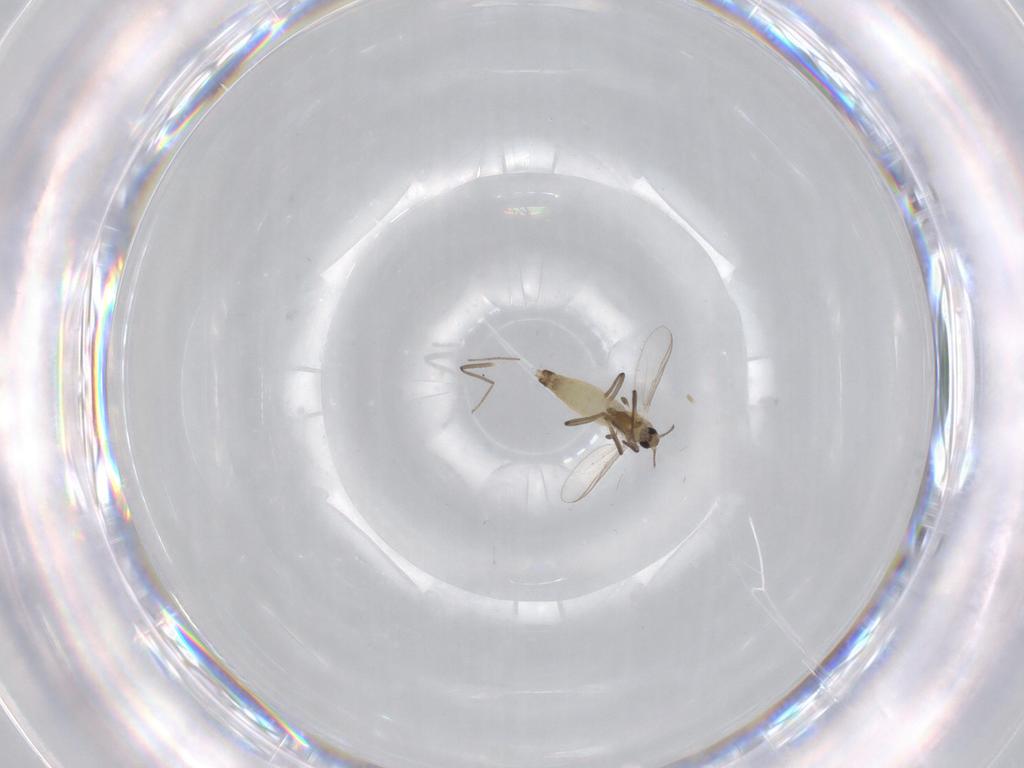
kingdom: Animalia
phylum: Arthropoda
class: Insecta
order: Diptera
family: Chironomidae
